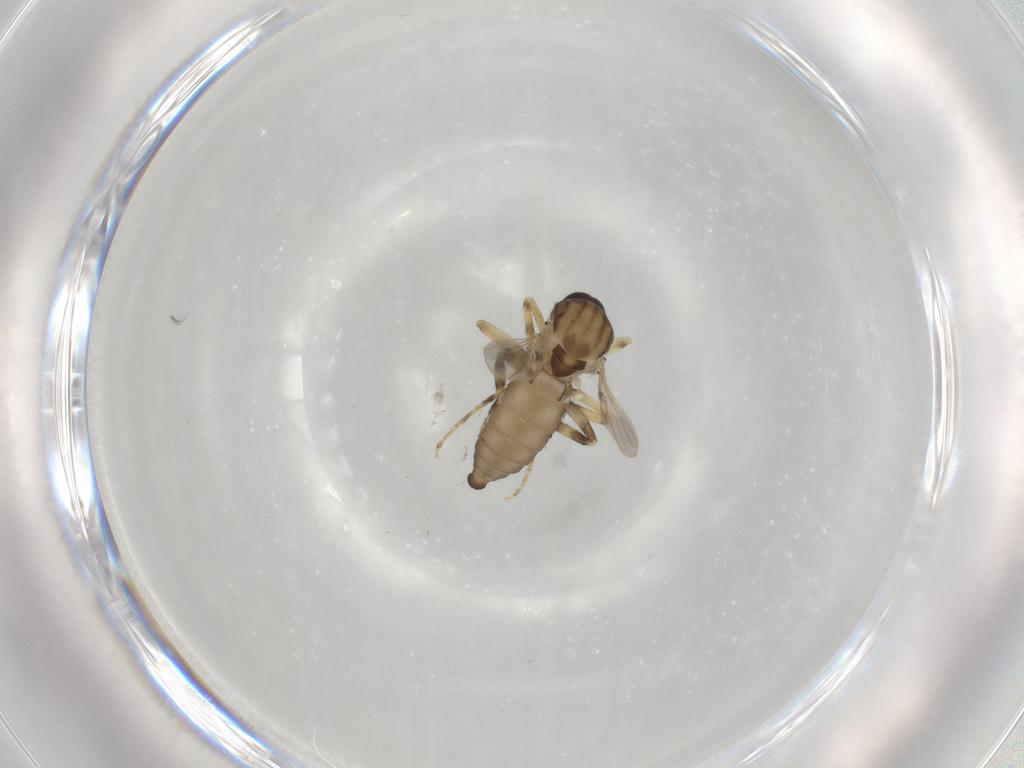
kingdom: Animalia
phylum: Arthropoda
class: Insecta
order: Diptera
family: Ceratopogonidae
